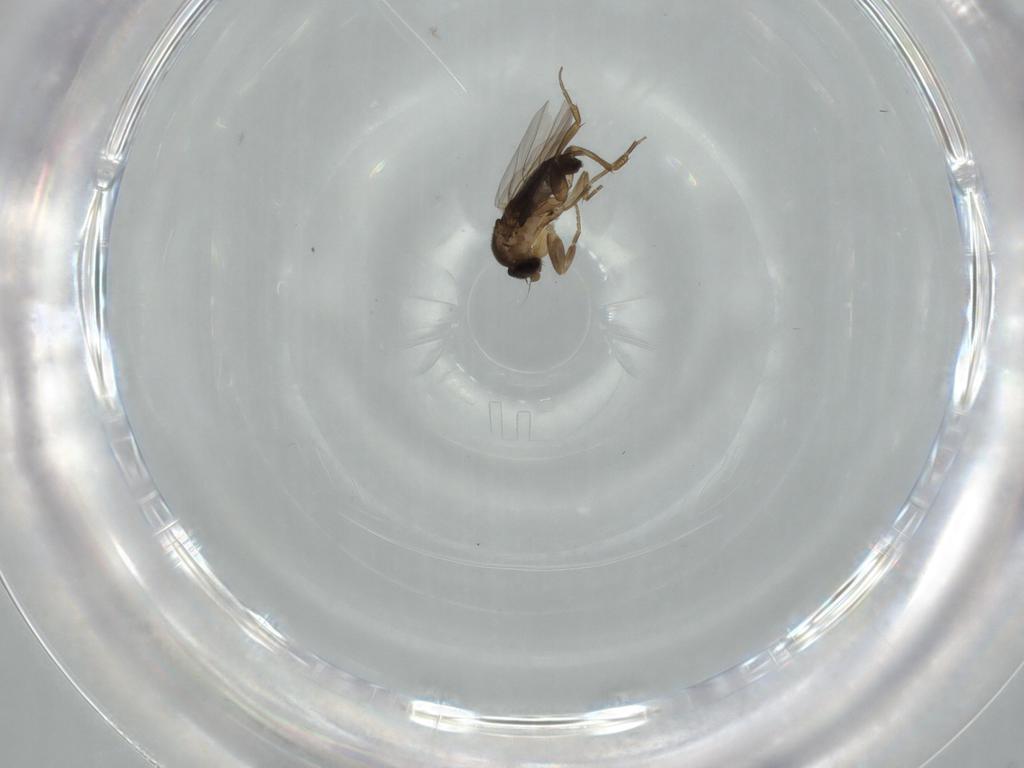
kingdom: Animalia
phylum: Arthropoda
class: Insecta
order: Diptera
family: Phoridae
